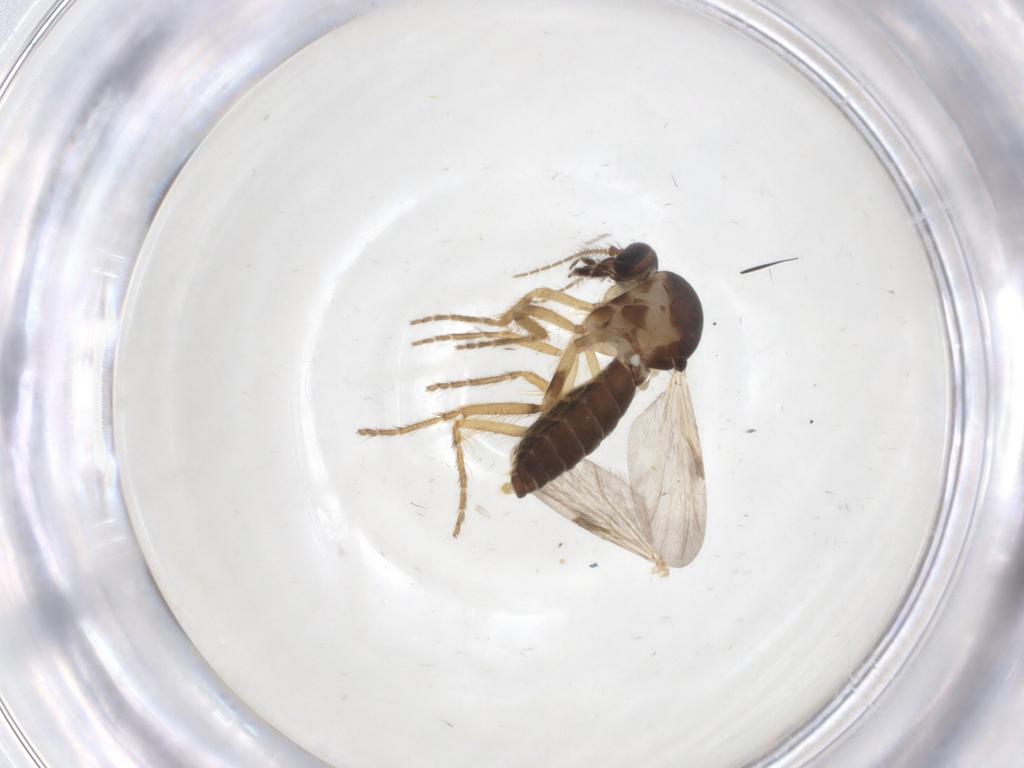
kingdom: Animalia
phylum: Arthropoda
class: Insecta
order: Diptera
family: Ceratopogonidae
